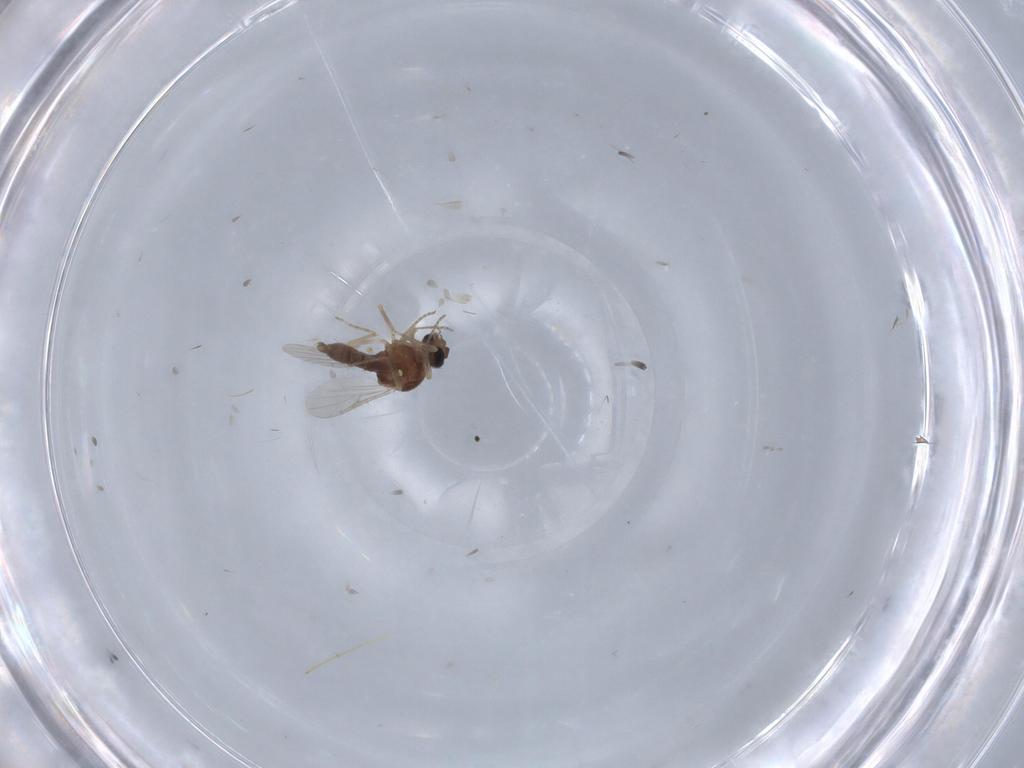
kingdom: Animalia
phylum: Arthropoda
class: Insecta
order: Diptera
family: Ceratopogonidae
